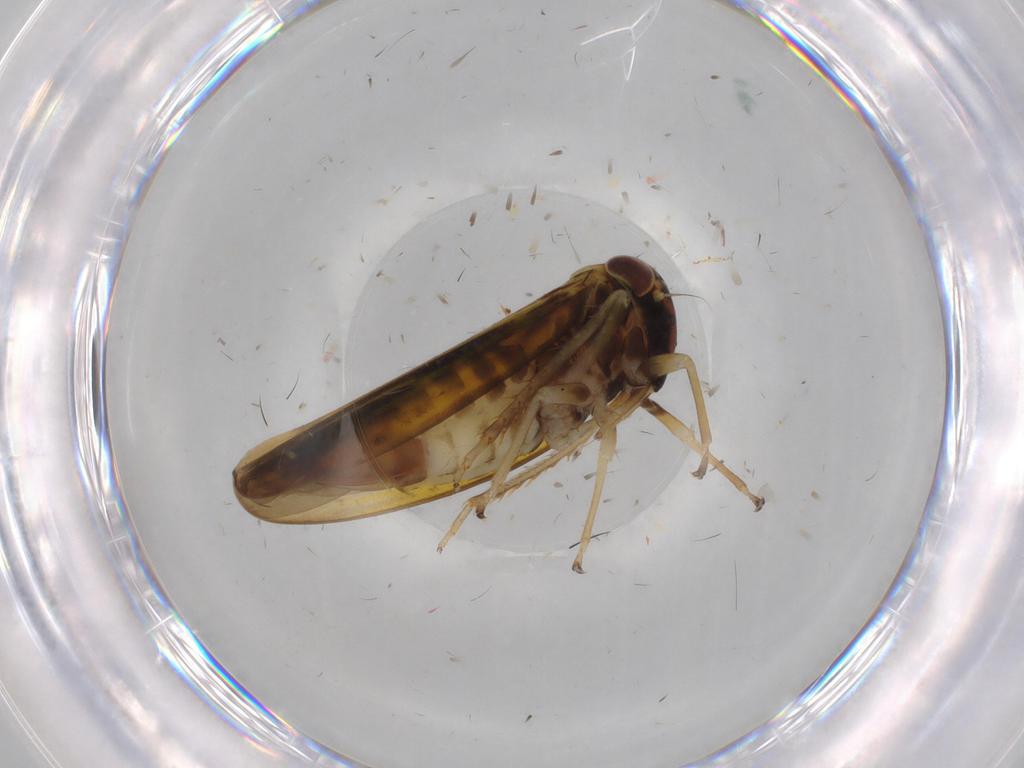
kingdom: Animalia
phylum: Arthropoda
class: Insecta
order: Hemiptera
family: Cicadellidae
